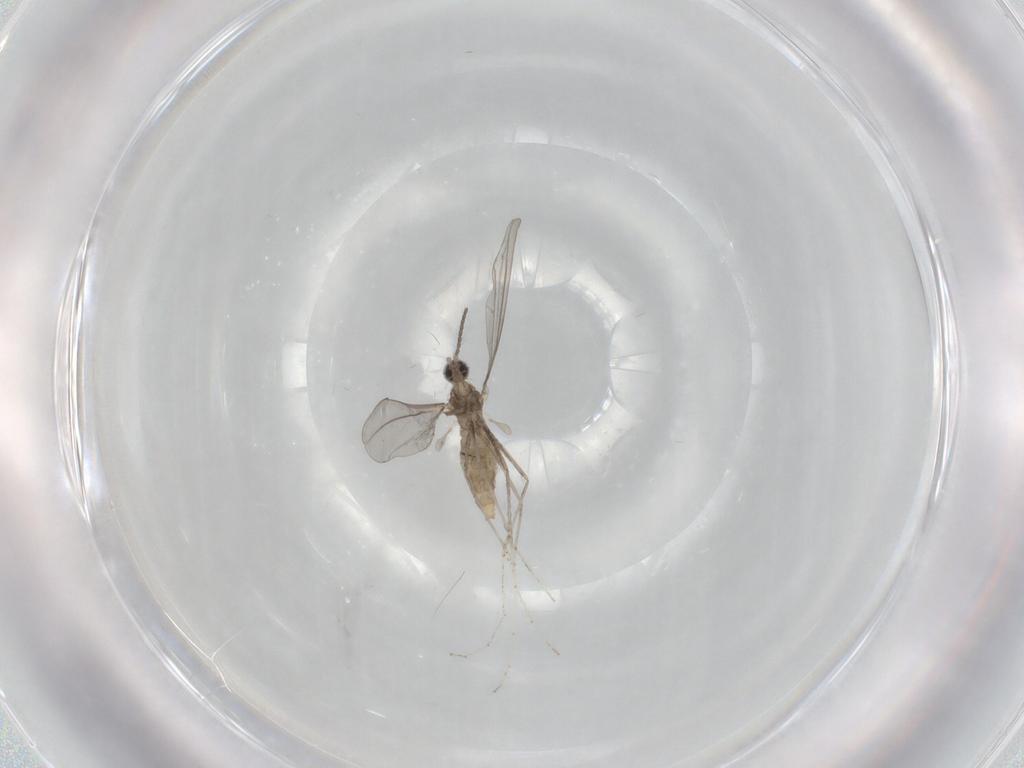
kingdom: Animalia
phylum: Arthropoda
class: Insecta
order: Diptera
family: Cecidomyiidae
